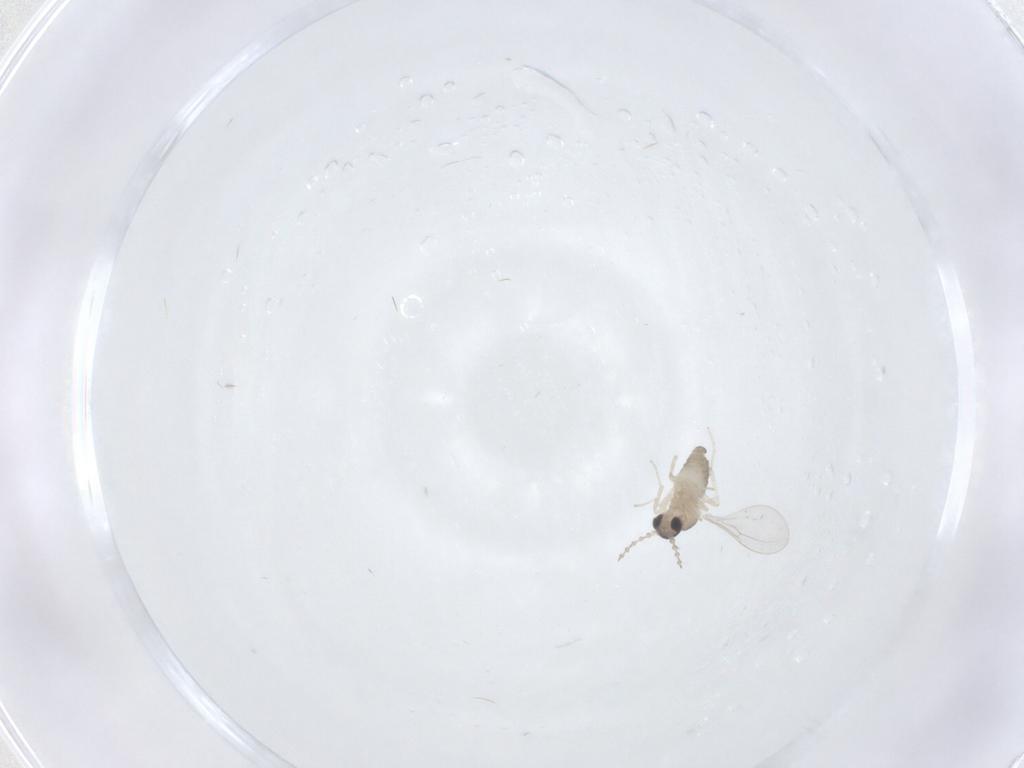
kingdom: Animalia
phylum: Arthropoda
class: Insecta
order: Diptera
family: Cecidomyiidae
